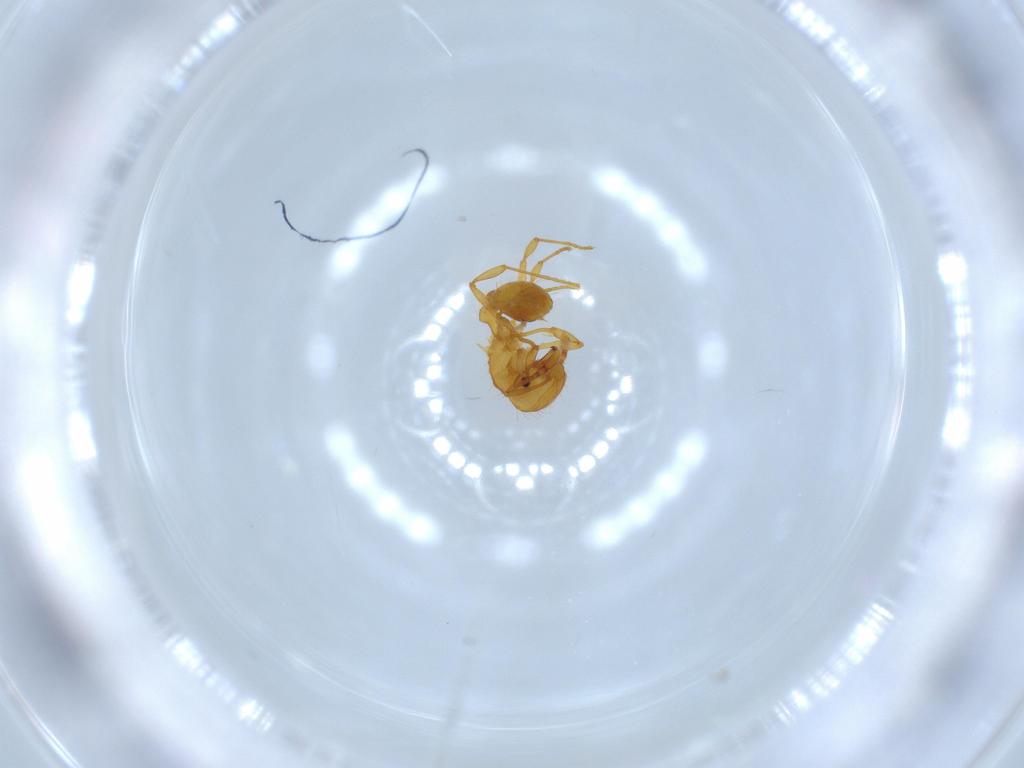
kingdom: Animalia
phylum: Arthropoda
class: Insecta
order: Hymenoptera
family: Formicidae
